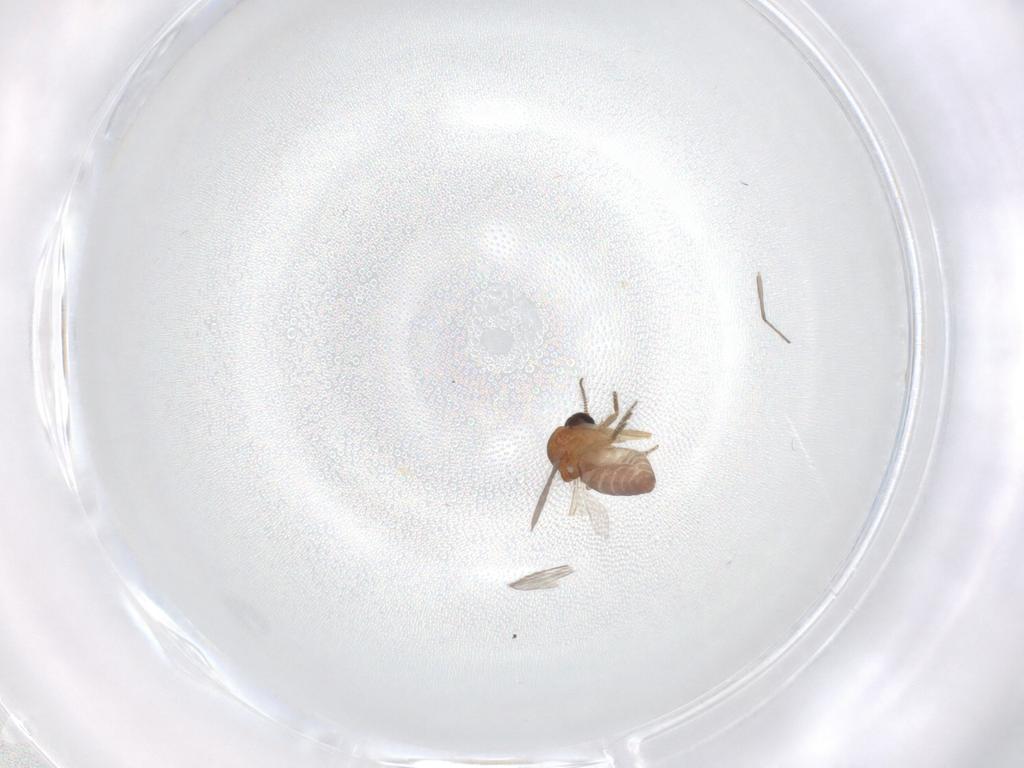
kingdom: Animalia
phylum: Arthropoda
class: Insecta
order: Diptera
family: Ceratopogonidae
